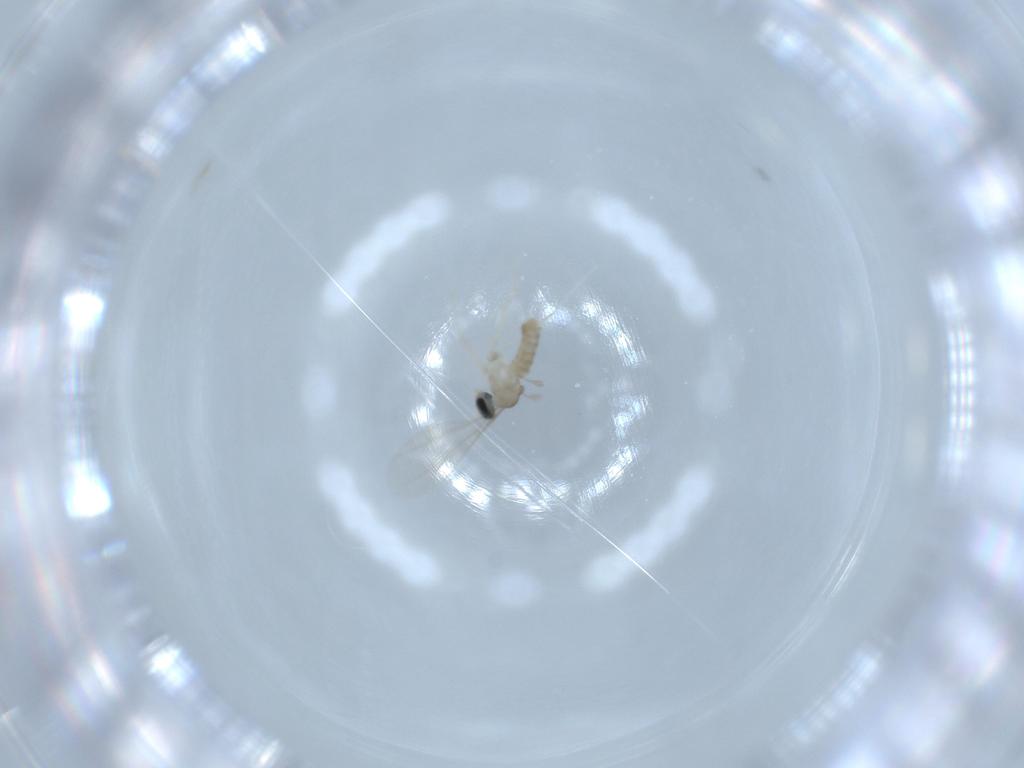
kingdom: Animalia
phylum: Arthropoda
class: Insecta
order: Diptera
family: Cecidomyiidae
